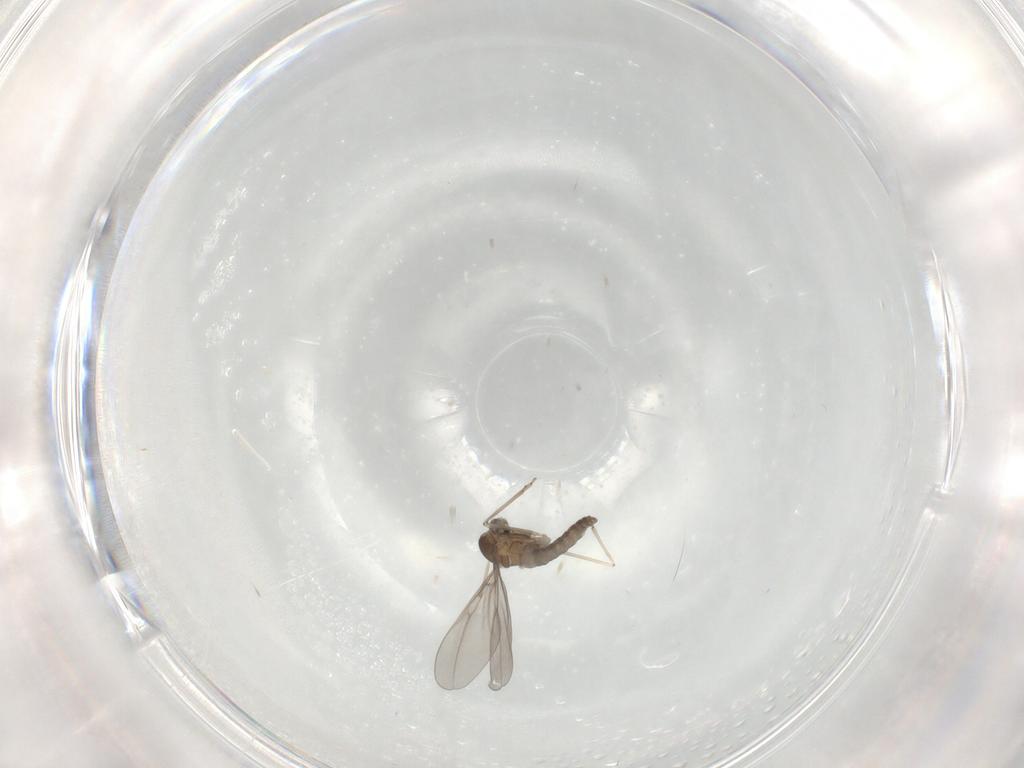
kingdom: Animalia
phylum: Arthropoda
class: Insecta
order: Diptera
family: Chironomidae
